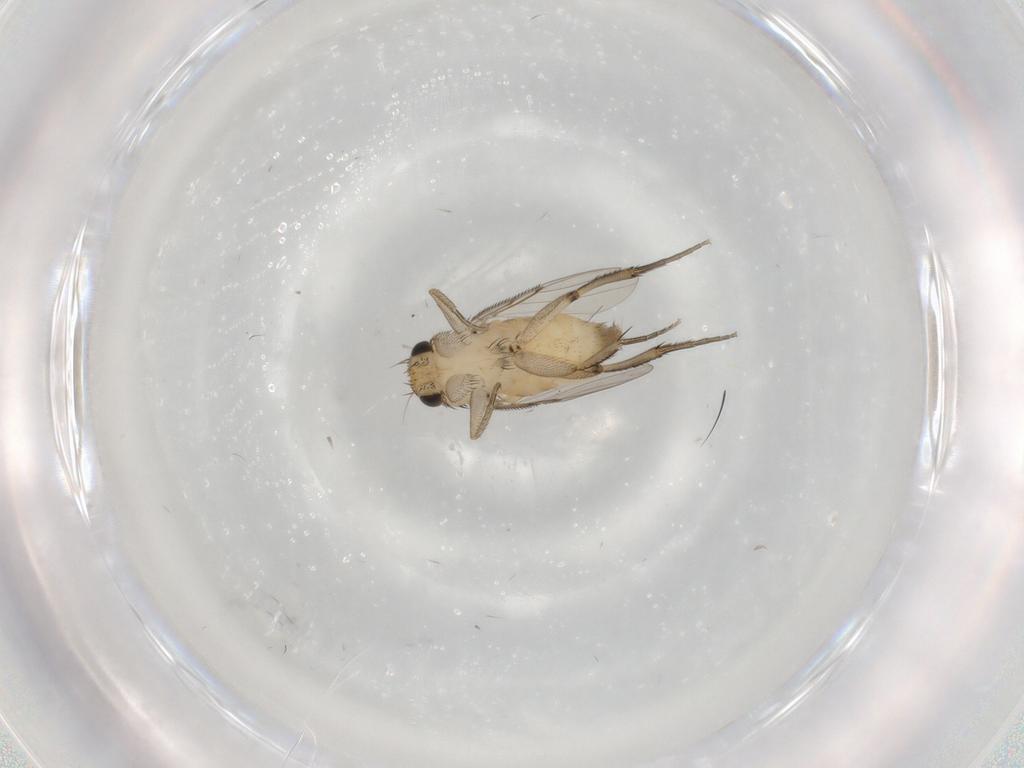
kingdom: Animalia
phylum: Arthropoda
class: Insecta
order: Diptera
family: Phoridae
